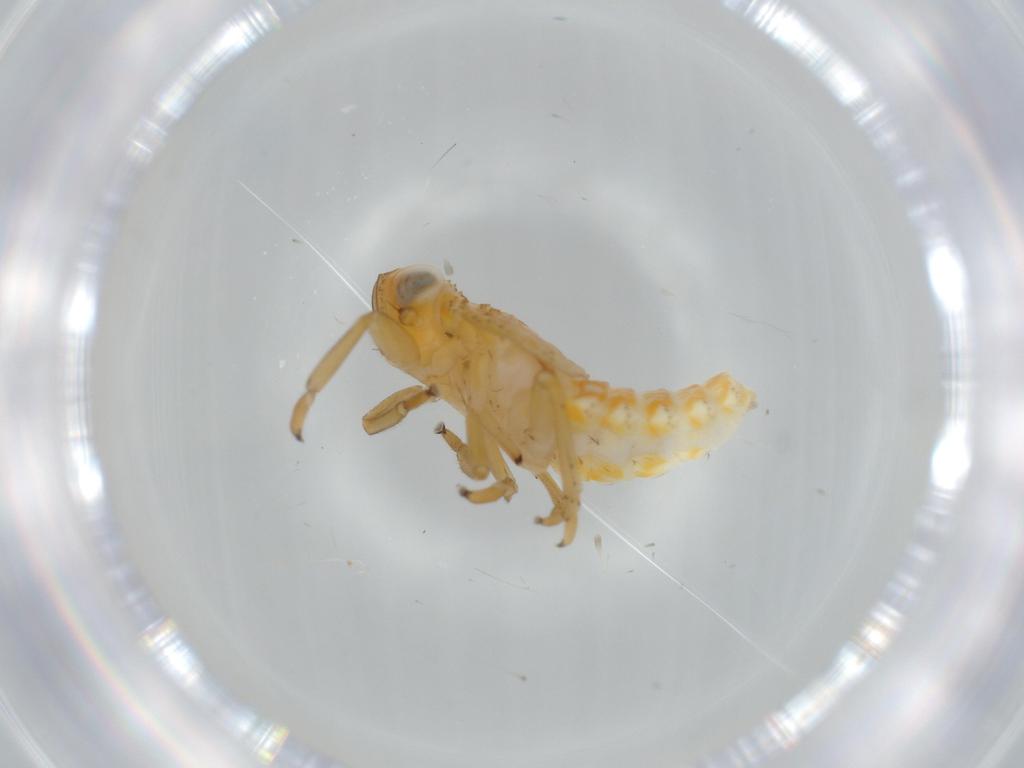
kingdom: Animalia
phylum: Arthropoda
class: Insecta
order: Hemiptera
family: Issidae
